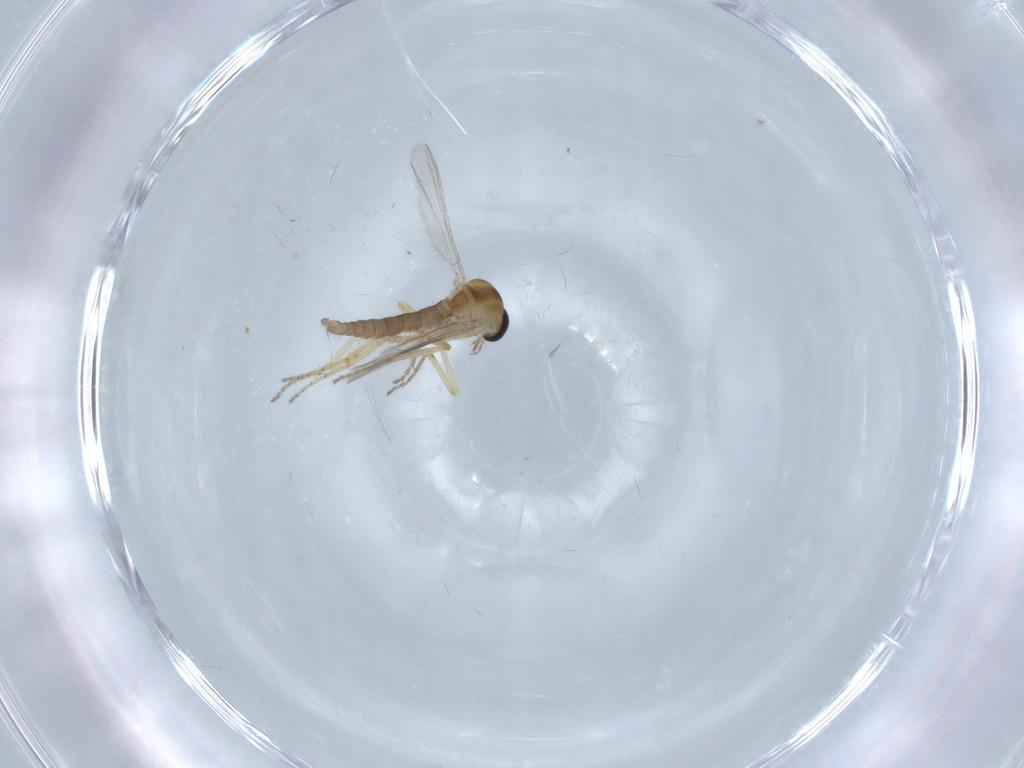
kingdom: Animalia
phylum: Arthropoda
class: Insecta
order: Diptera
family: Ceratopogonidae
